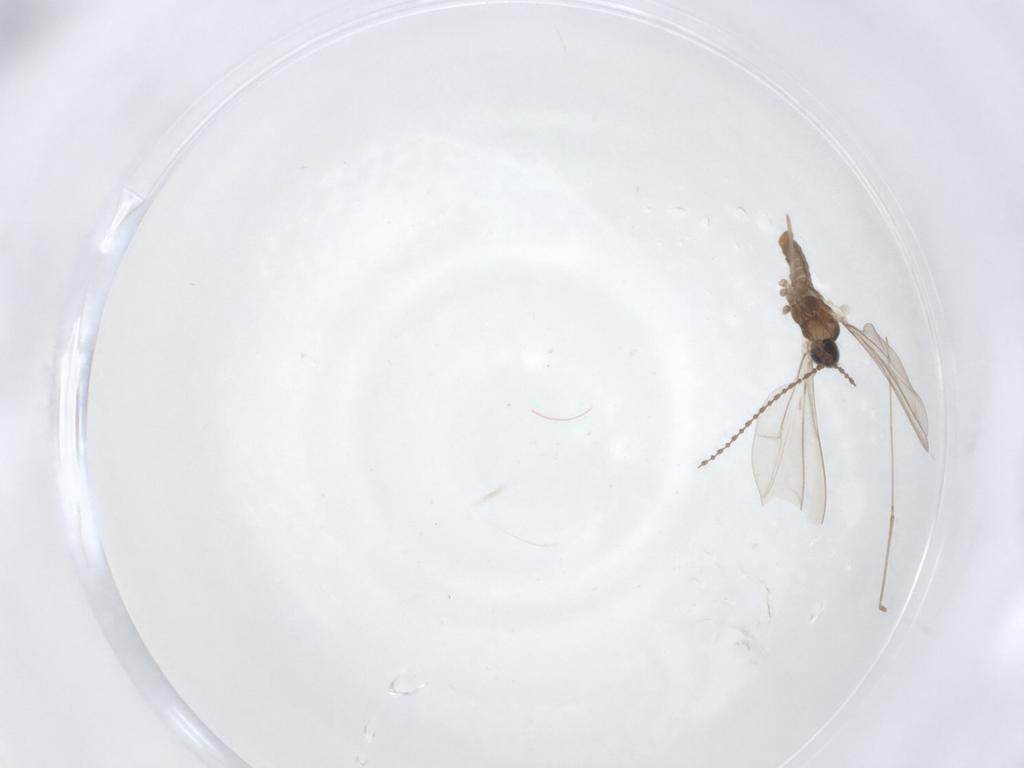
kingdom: Animalia
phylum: Arthropoda
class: Insecta
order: Diptera
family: Cecidomyiidae
